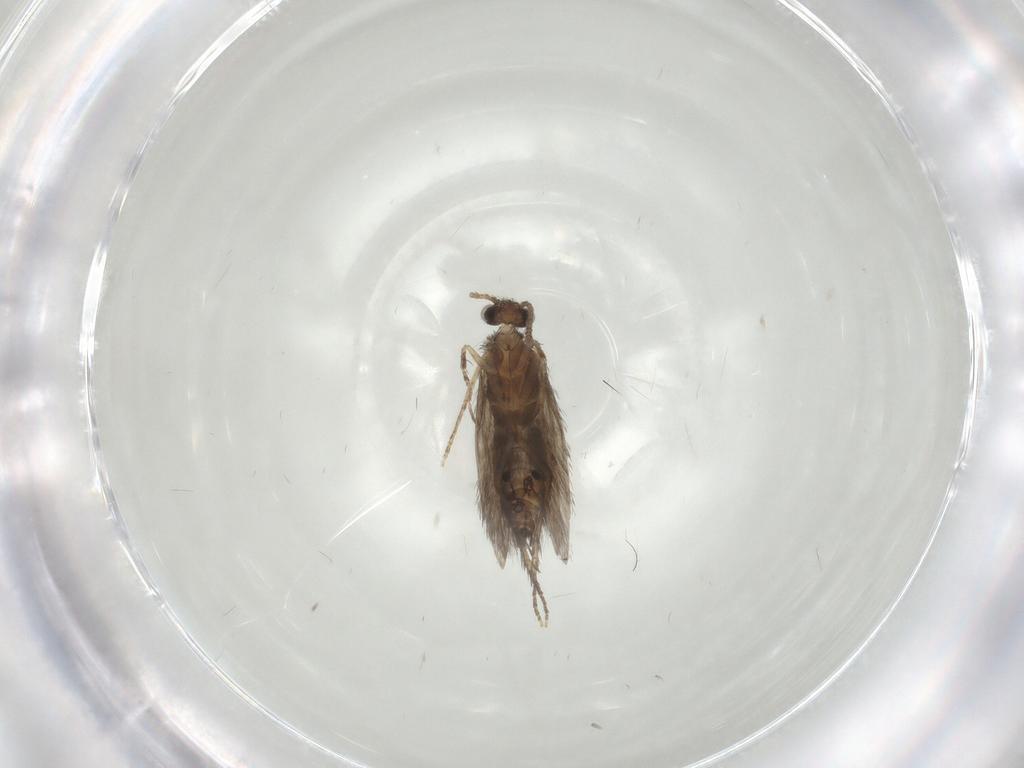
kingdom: Animalia
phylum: Arthropoda
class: Insecta
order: Trichoptera
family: Hydroptilidae
